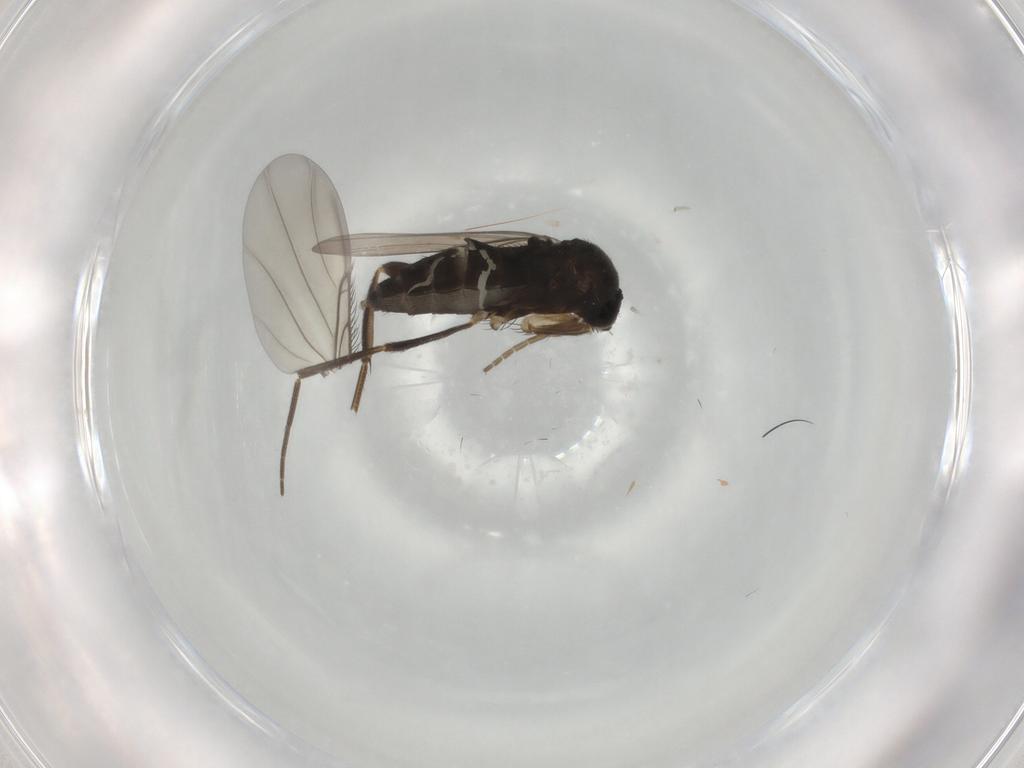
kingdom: Animalia
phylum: Arthropoda
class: Insecta
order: Diptera
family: Phoridae
